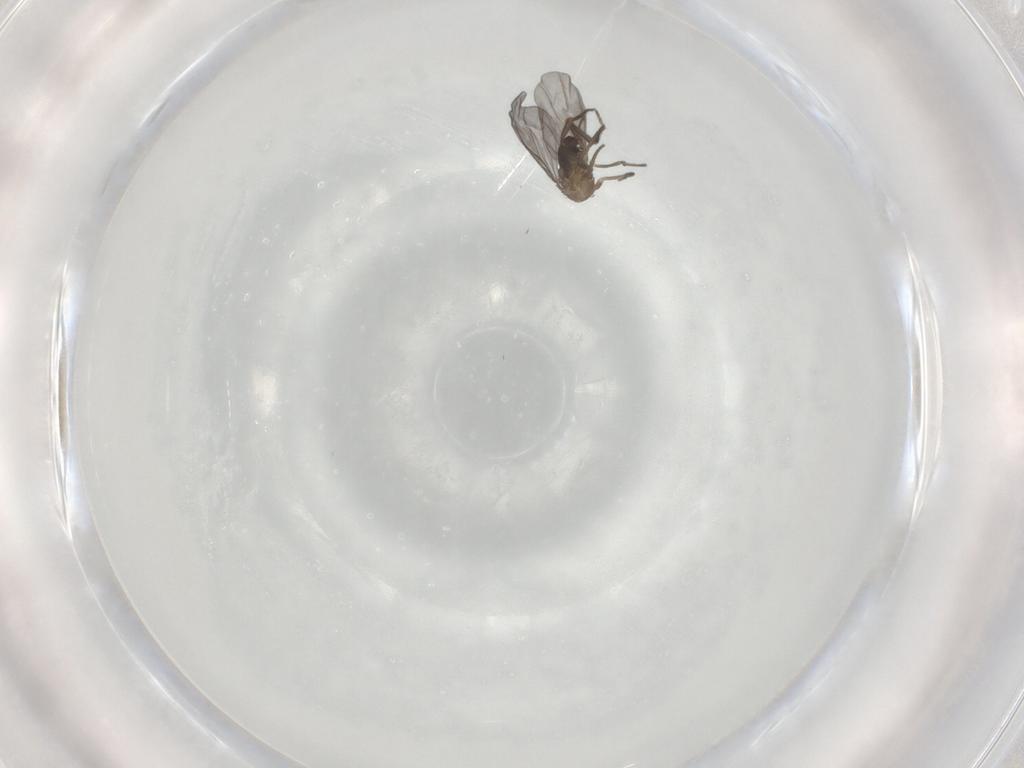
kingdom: Animalia
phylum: Arthropoda
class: Insecta
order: Diptera
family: Phoridae
